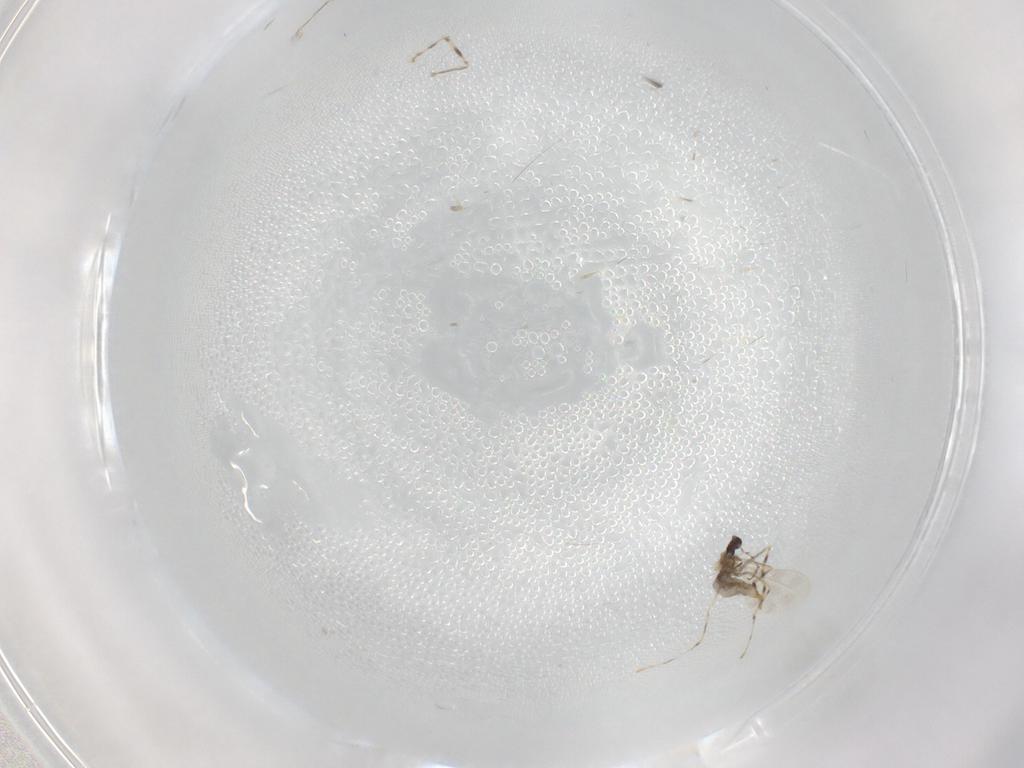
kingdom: Animalia
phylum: Arthropoda
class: Insecta
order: Diptera
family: Cecidomyiidae
